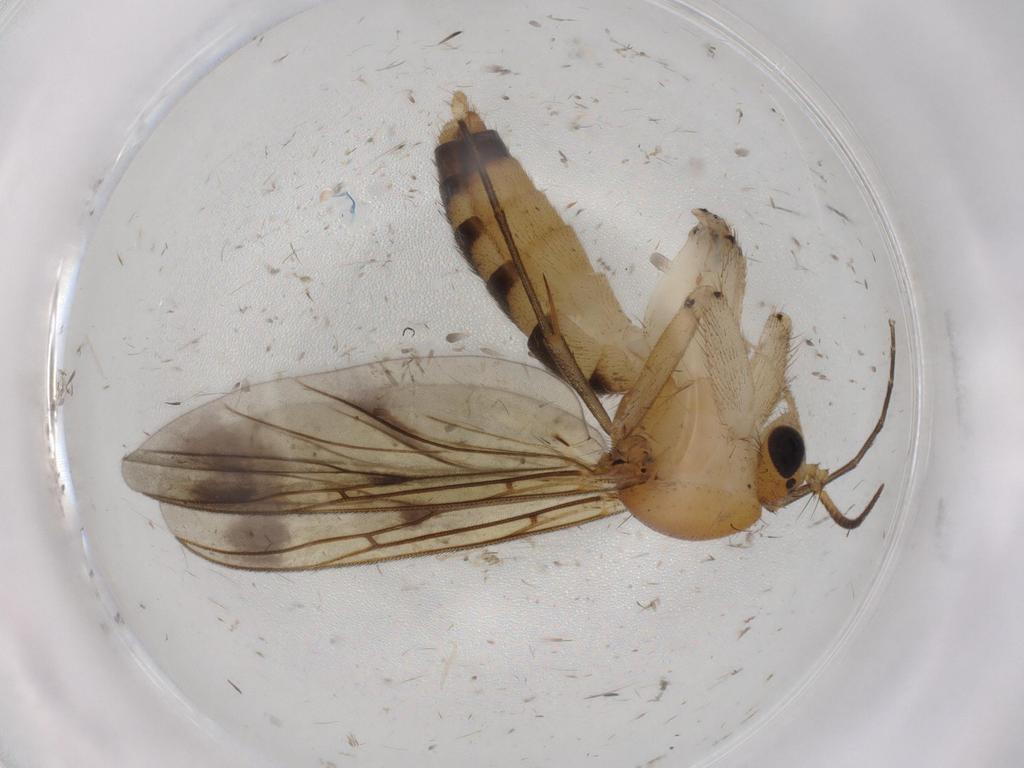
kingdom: Animalia
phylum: Arthropoda
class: Insecta
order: Diptera
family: Mycetophilidae
